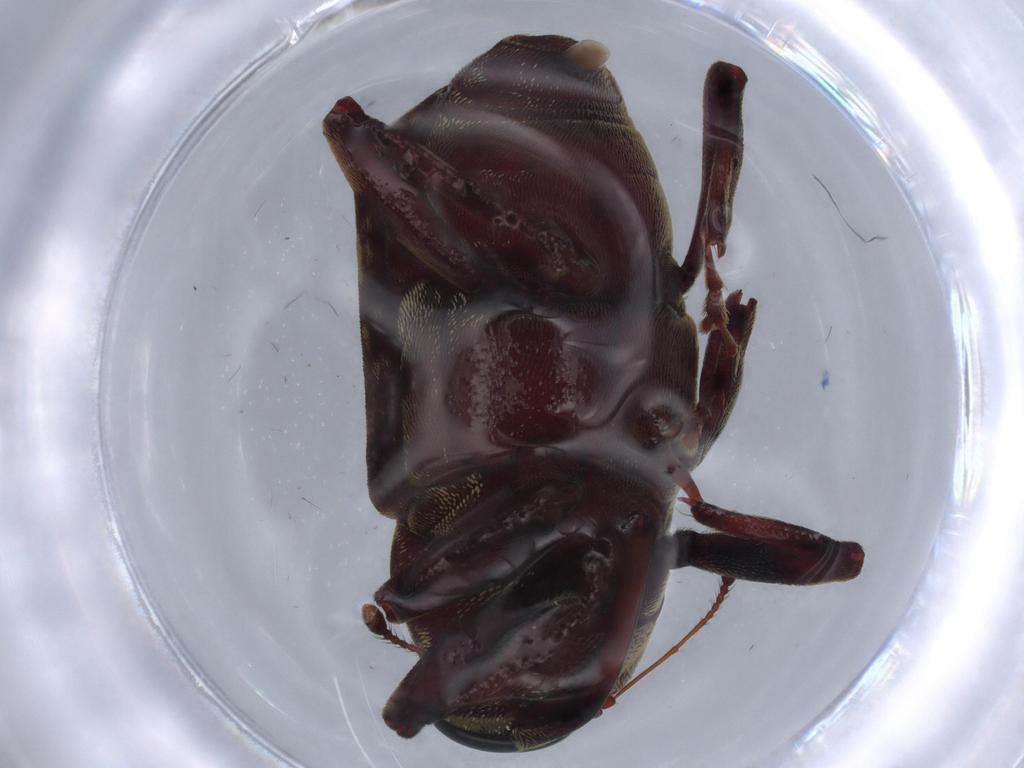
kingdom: Animalia
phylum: Arthropoda
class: Insecta
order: Coleoptera
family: Curculionidae
